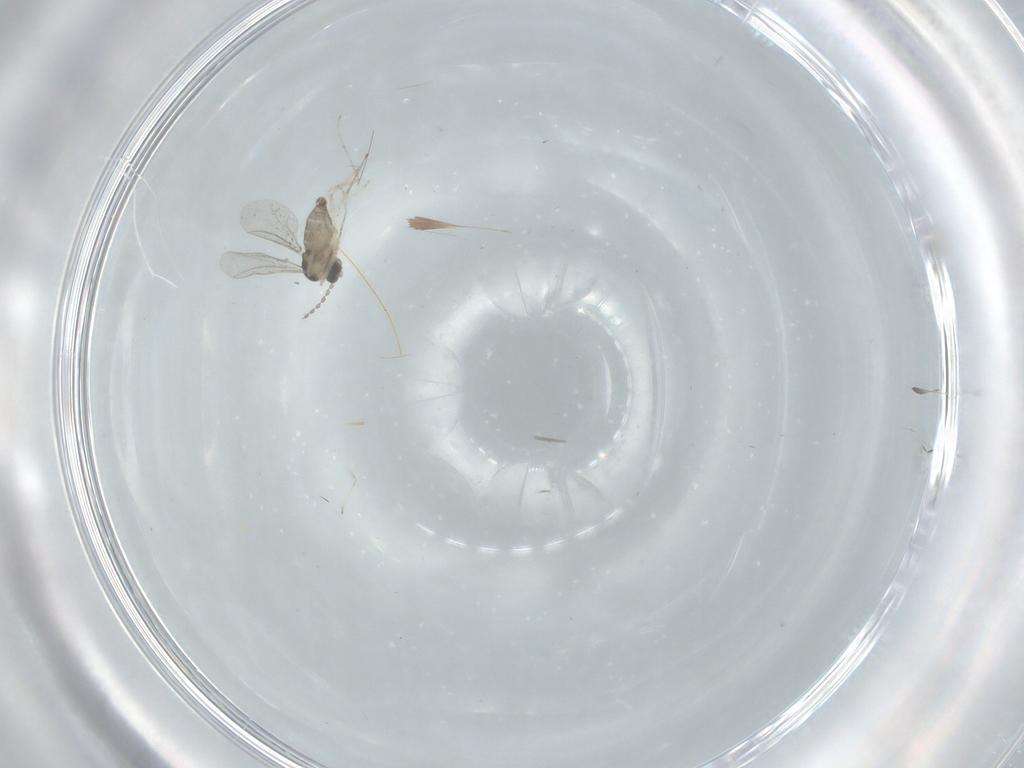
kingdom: Animalia
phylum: Arthropoda
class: Insecta
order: Diptera
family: Cecidomyiidae
